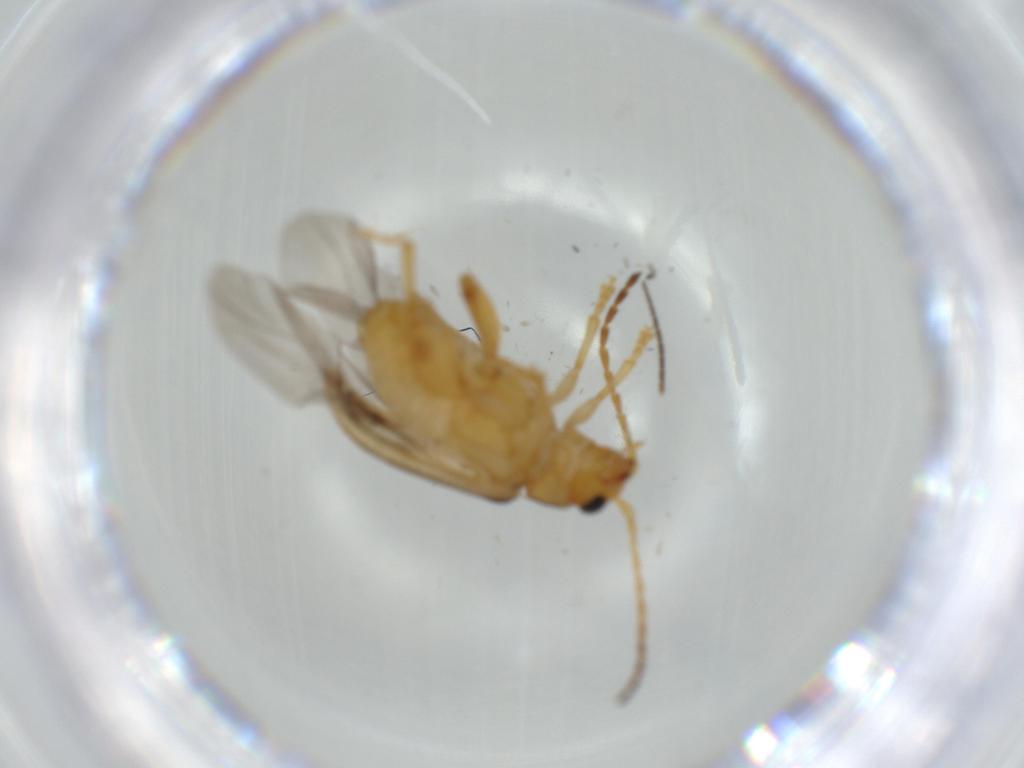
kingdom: Animalia
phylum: Arthropoda
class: Insecta
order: Coleoptera
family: Chrysomelidae
